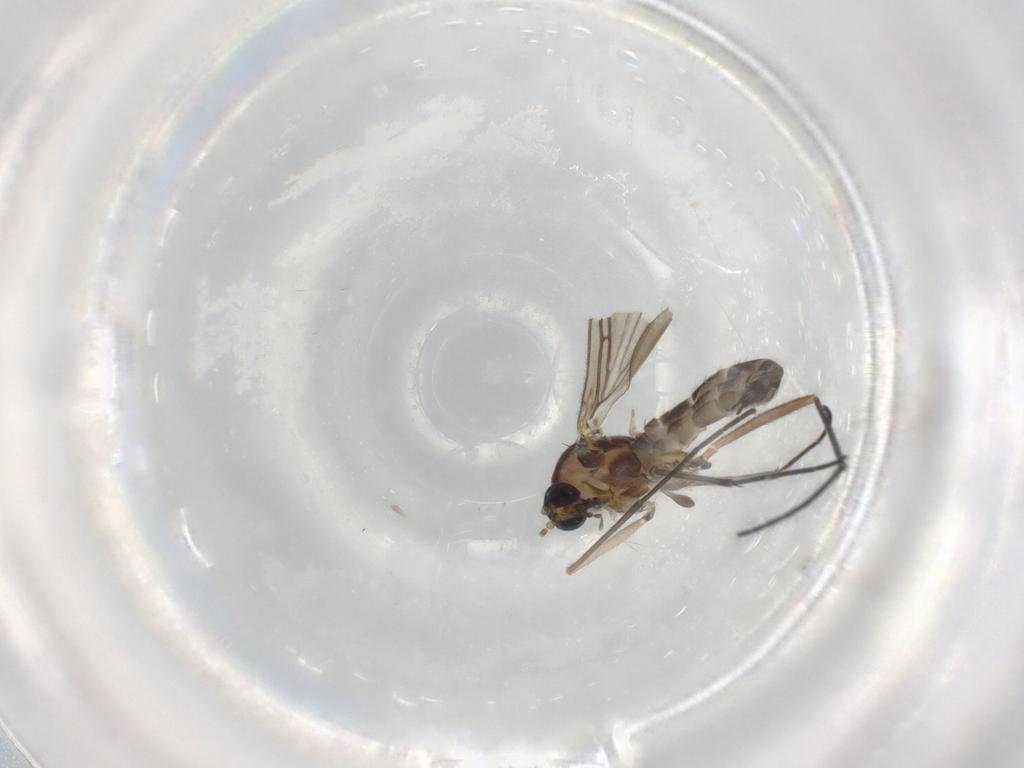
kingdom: Animalia
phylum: Arthropoda
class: Insecta
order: Diptera
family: Sciaridae
